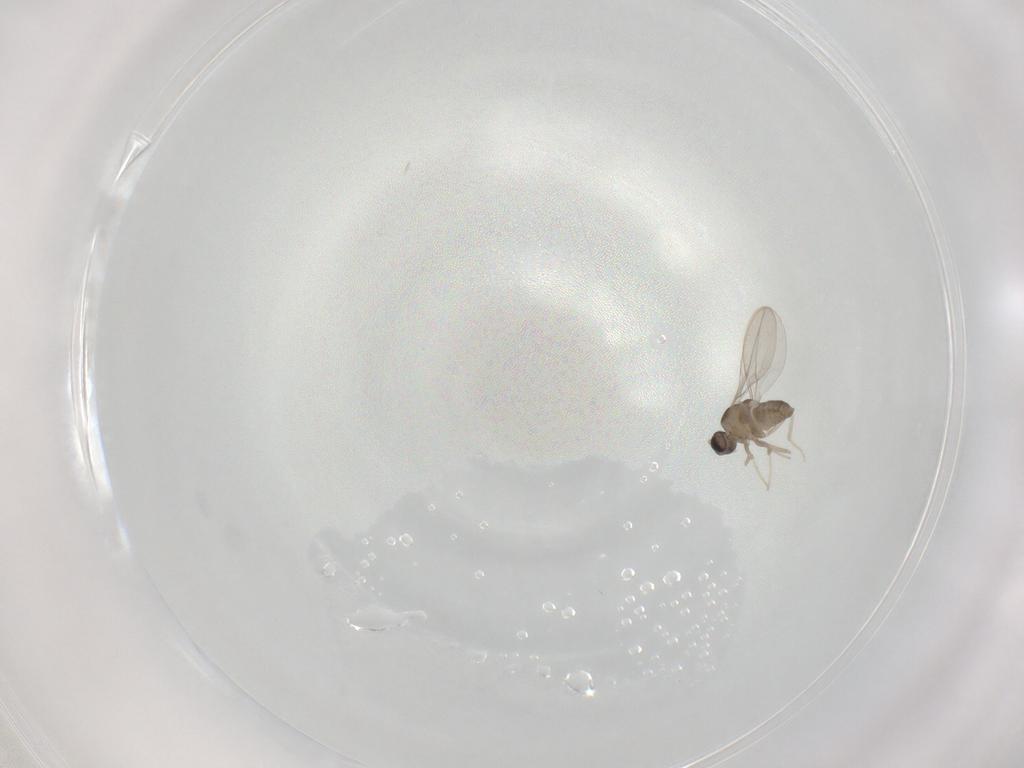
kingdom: Animalia
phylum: Arthropoda
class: Insecta
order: Diptera
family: Cecidomyiidae
